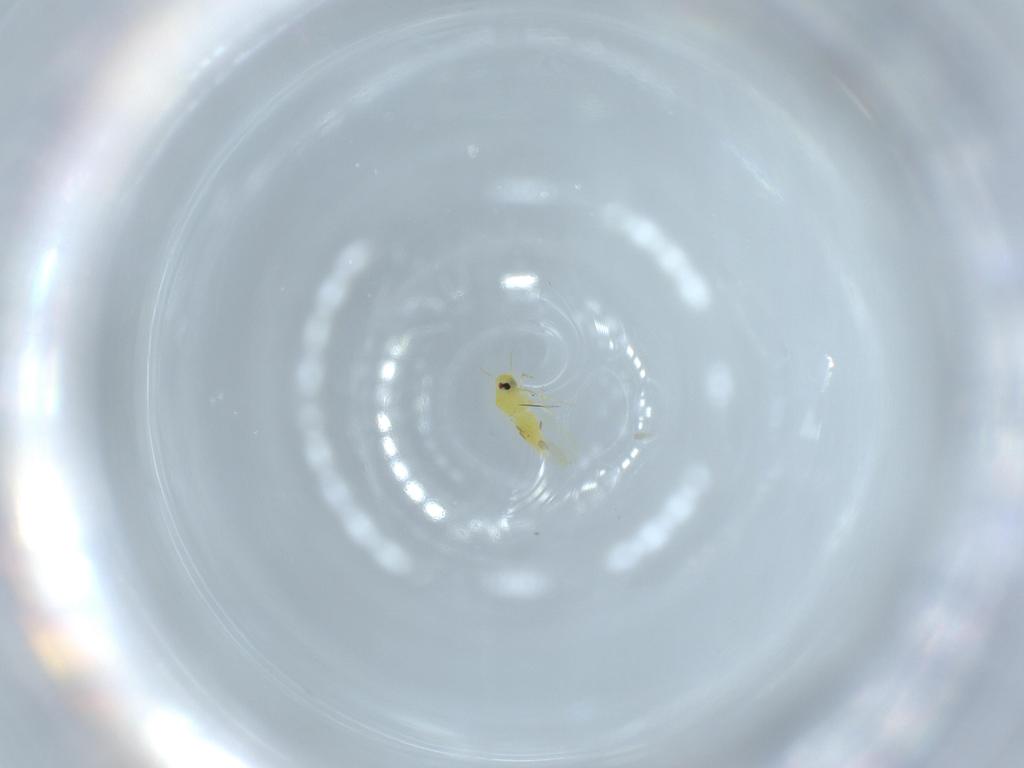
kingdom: Animalia
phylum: Arthropoda
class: Insecta
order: Hemiptera
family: Aleyrodidae
